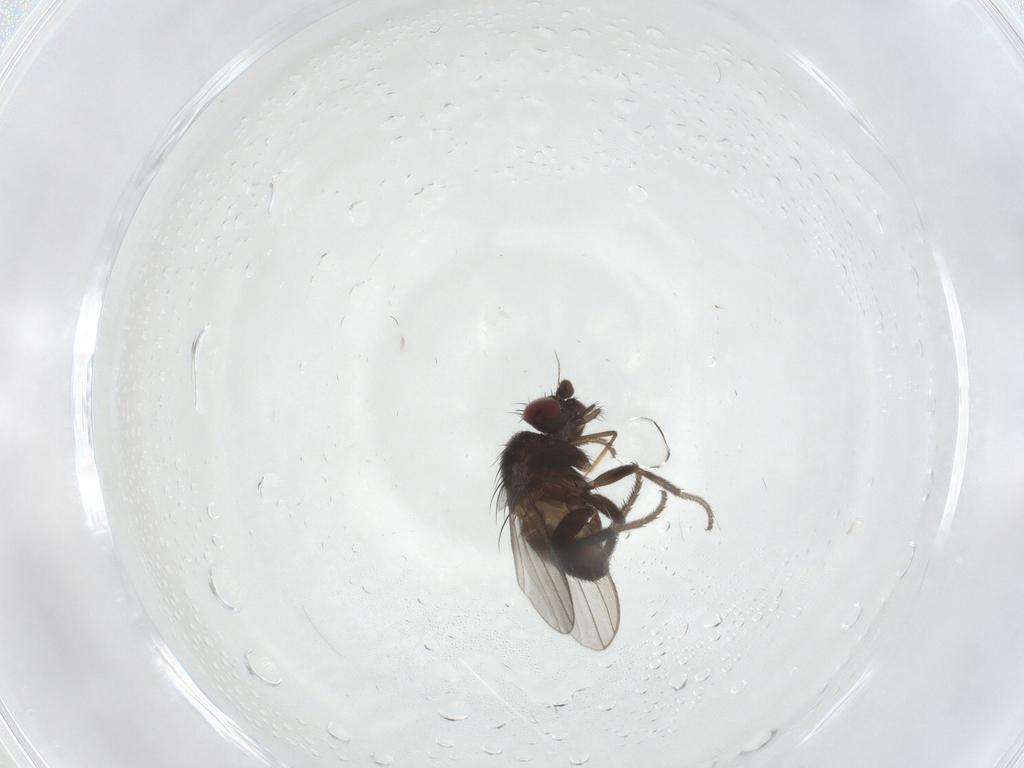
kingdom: Animalia
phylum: Arthropoda
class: Insecta
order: Diptera
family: Milichiidae
